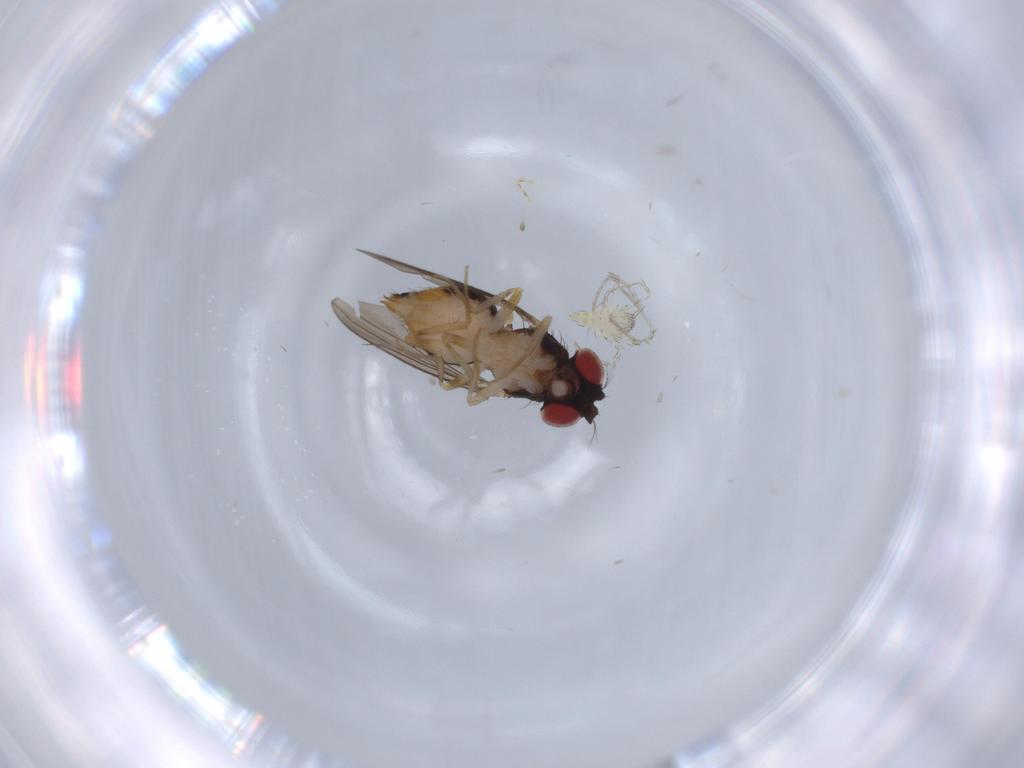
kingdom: Animalia
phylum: Arthropoda
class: Insecta
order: Diptera
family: Drosophilidae
